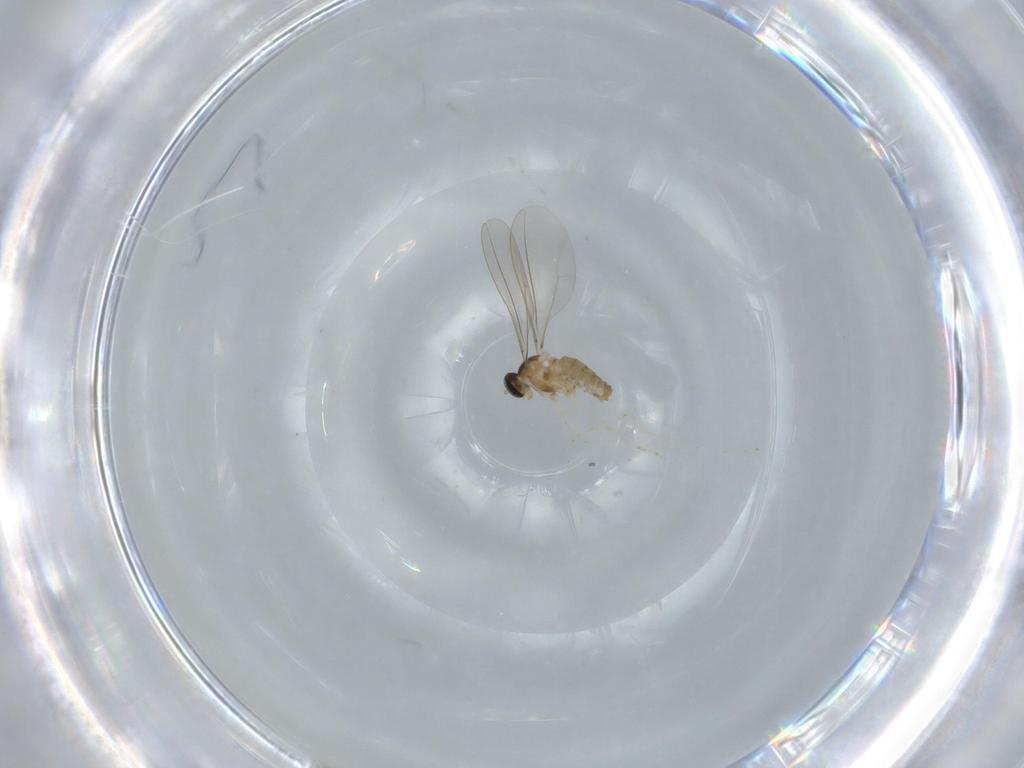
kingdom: Animalia
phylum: Arthropoda
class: Insecta
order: Diptera
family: Cecidomyiidae
